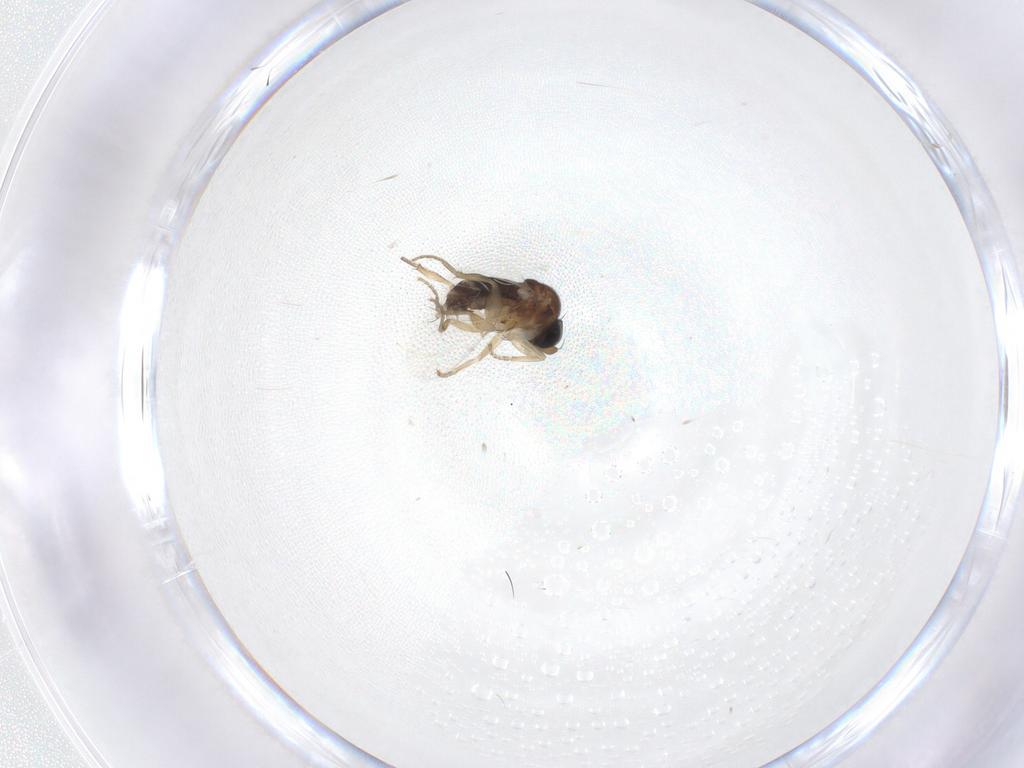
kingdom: Animalia
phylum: Arthropoda
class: Insecta
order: Diptera
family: Phoridae
